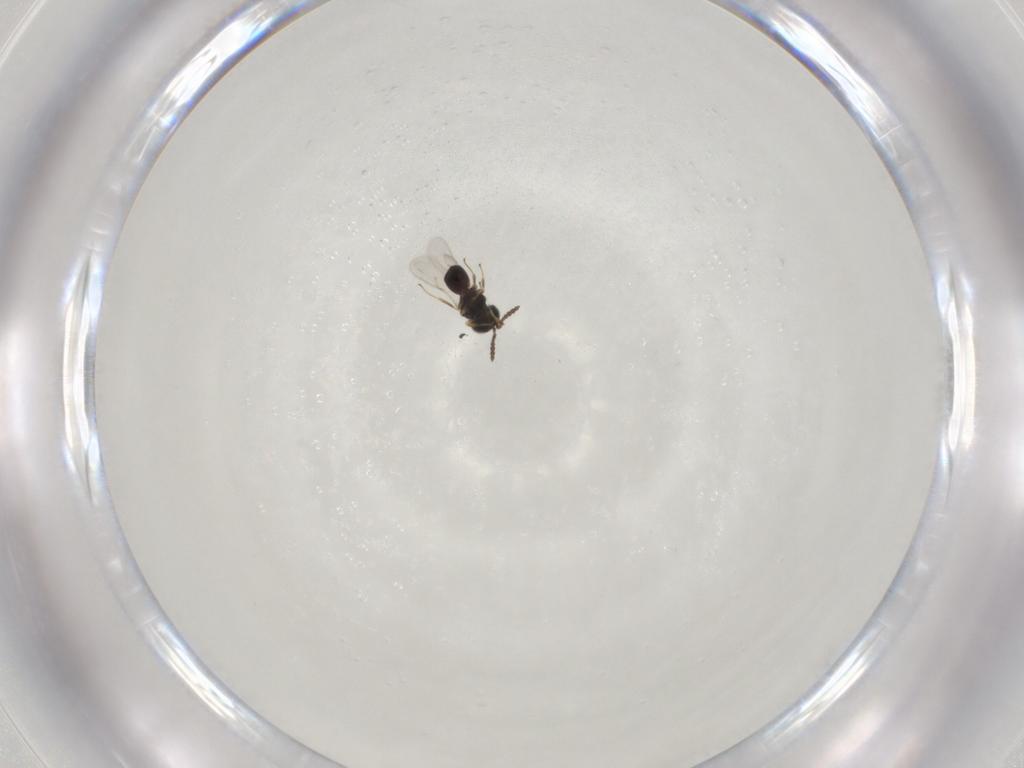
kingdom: Animalia
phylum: Arthropoda
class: Insecta
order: Hymenoptera
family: Scelionidae
